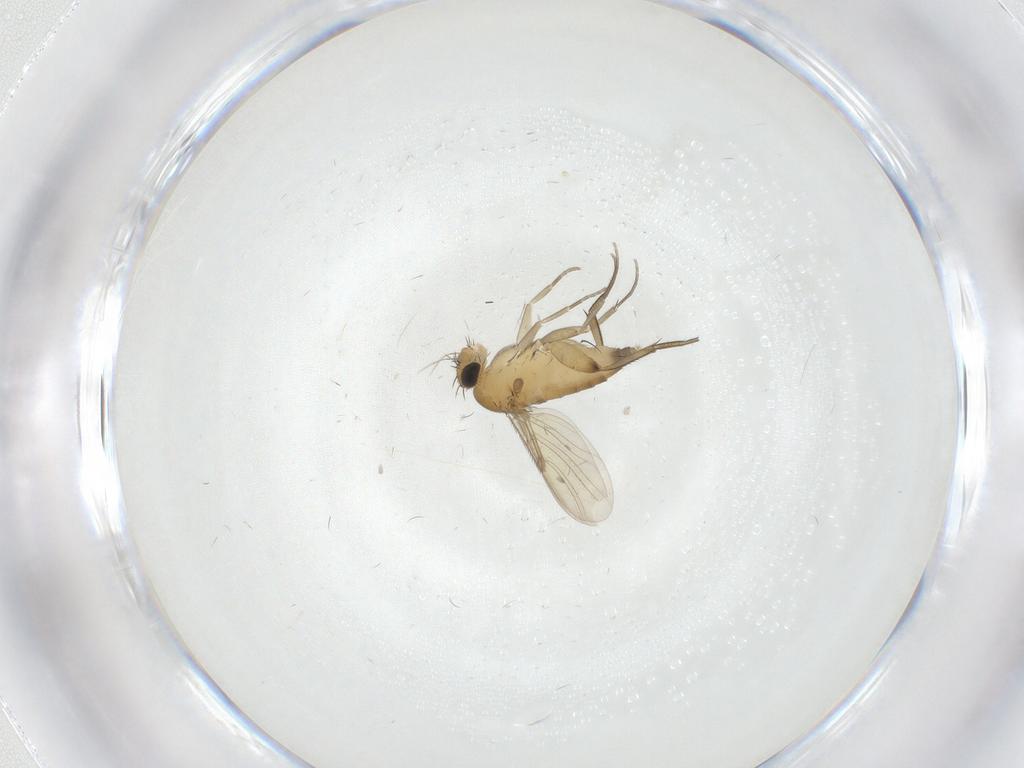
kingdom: Animalia
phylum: Arthropoda
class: Insecta
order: Diptera
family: Phoridae
